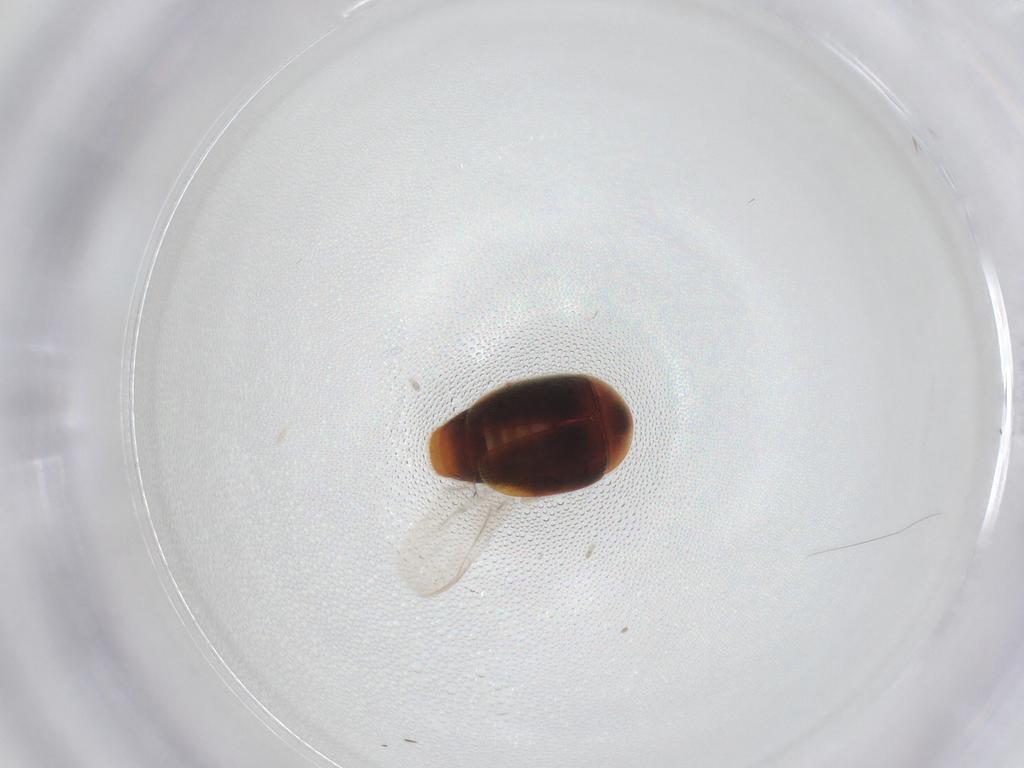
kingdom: Animalia
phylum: Arthropoda
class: Insecta
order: Coleoptera
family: Corylophidae
